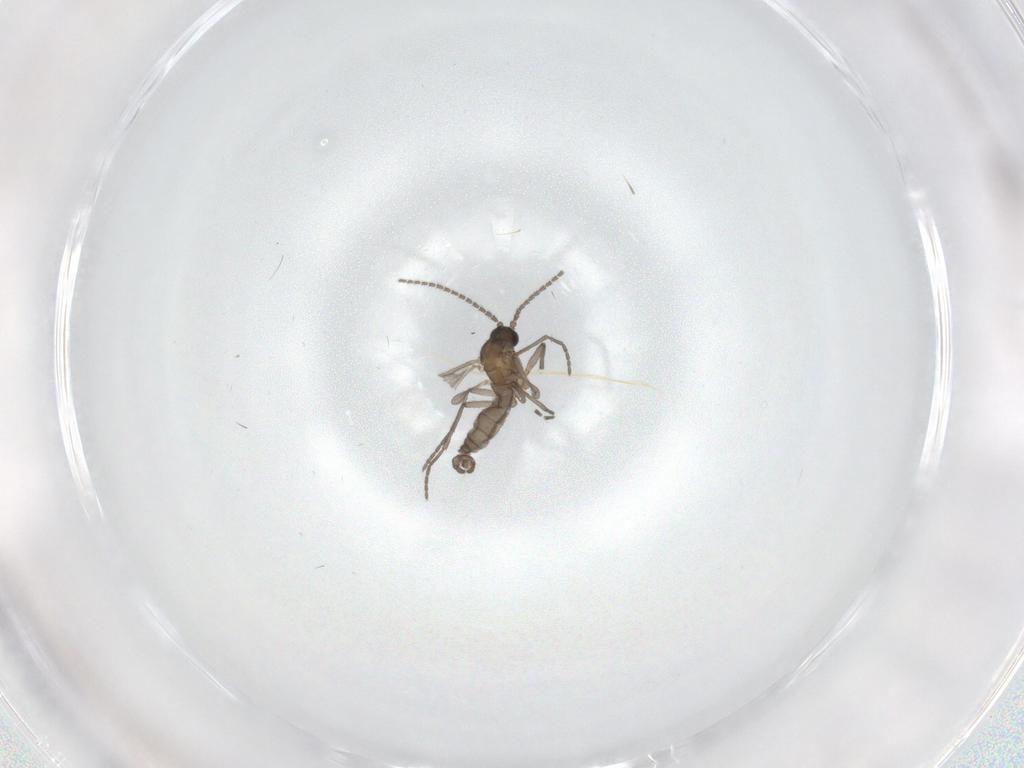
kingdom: Animalia
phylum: Arthropoda
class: Insecta
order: Diptera
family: Sciaridae
